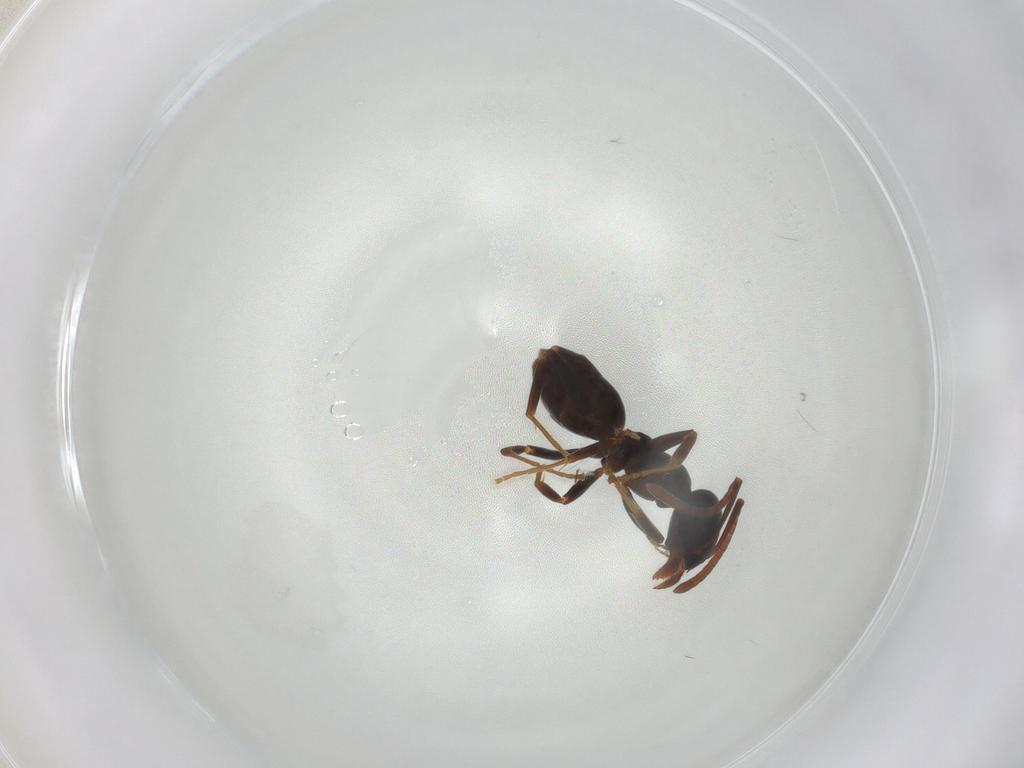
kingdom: Animalia
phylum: Arthropoda
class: Insecta
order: Hymenoptera
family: Formicidae
